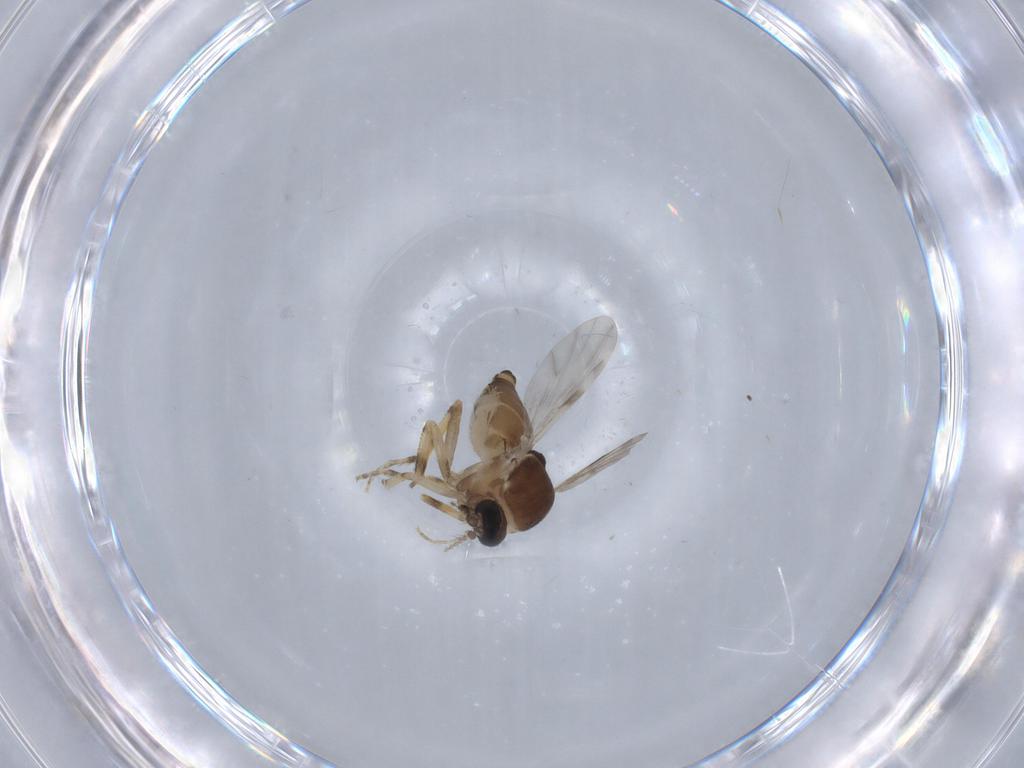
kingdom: Animalia
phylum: Arthropoda
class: Insecta
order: Diptera
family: Ceratopogonidae
